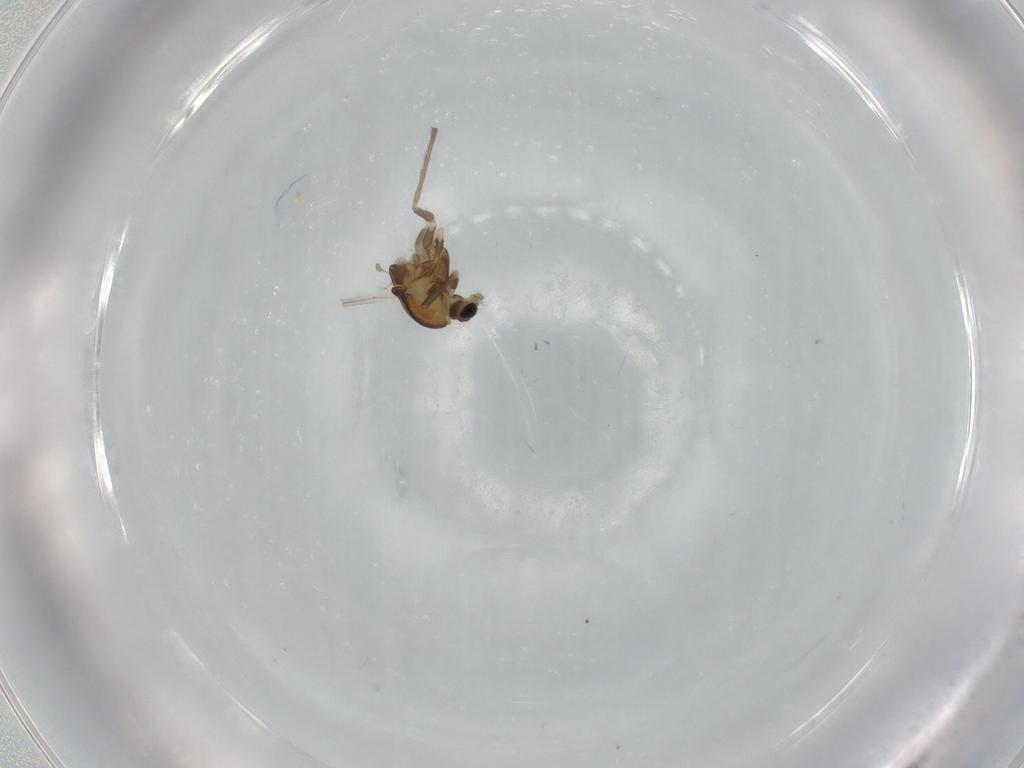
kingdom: Animalia
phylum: Arthropoda
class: Insecta
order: Diptera
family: Chironomidae
